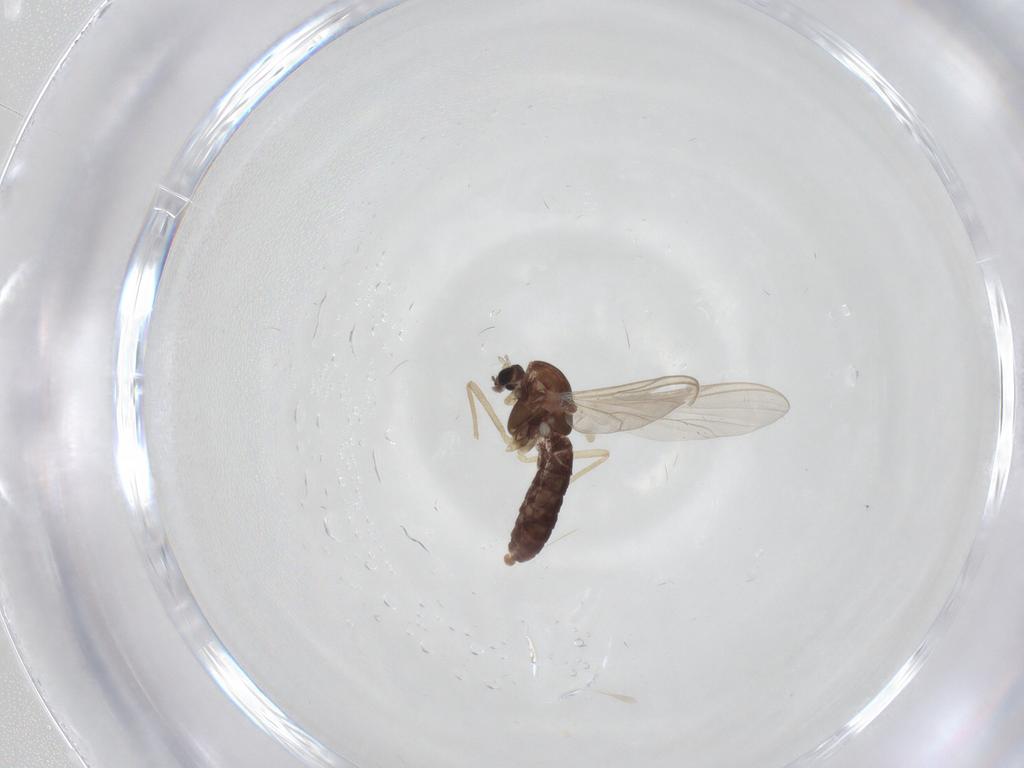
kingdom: Animalia
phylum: Arthropoda
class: Insecta
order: Diptera
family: Chironomidae
